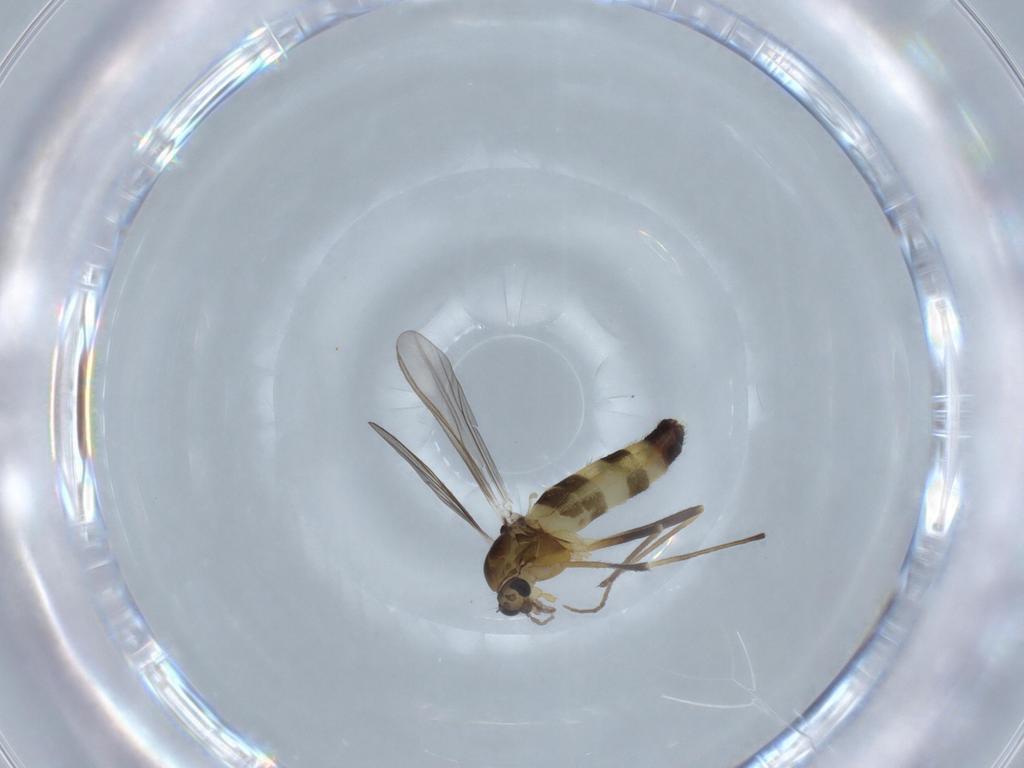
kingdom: Animalia
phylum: Arthropoda
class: Insecta
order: Diptera
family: Chironomidae
